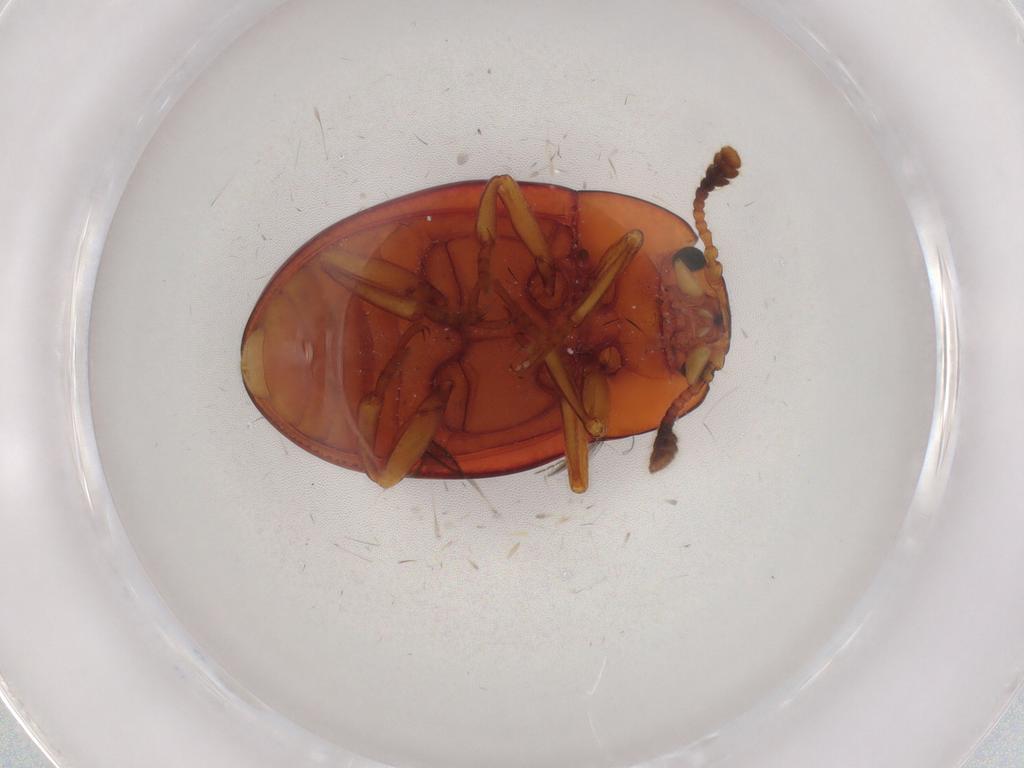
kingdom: Animalia
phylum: Arthropoda
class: Insecta
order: Coleoptera
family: Erotylidae
